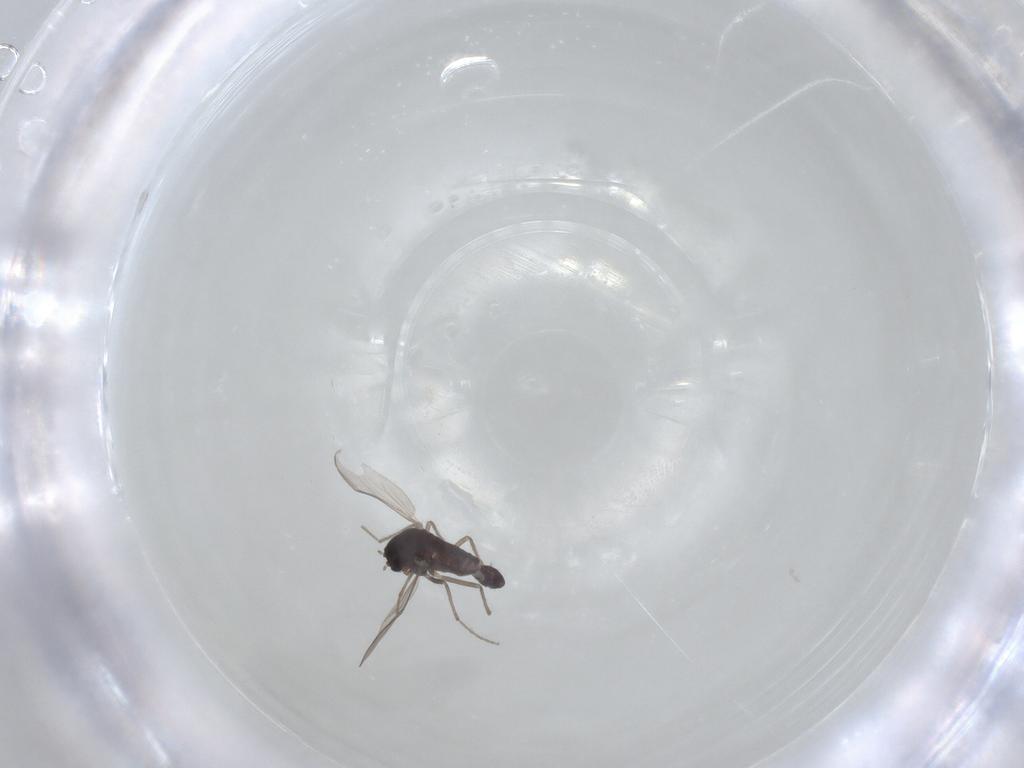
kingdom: Animalia
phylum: Arthropoda
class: Insecta
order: Diptera
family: Chironomidae
